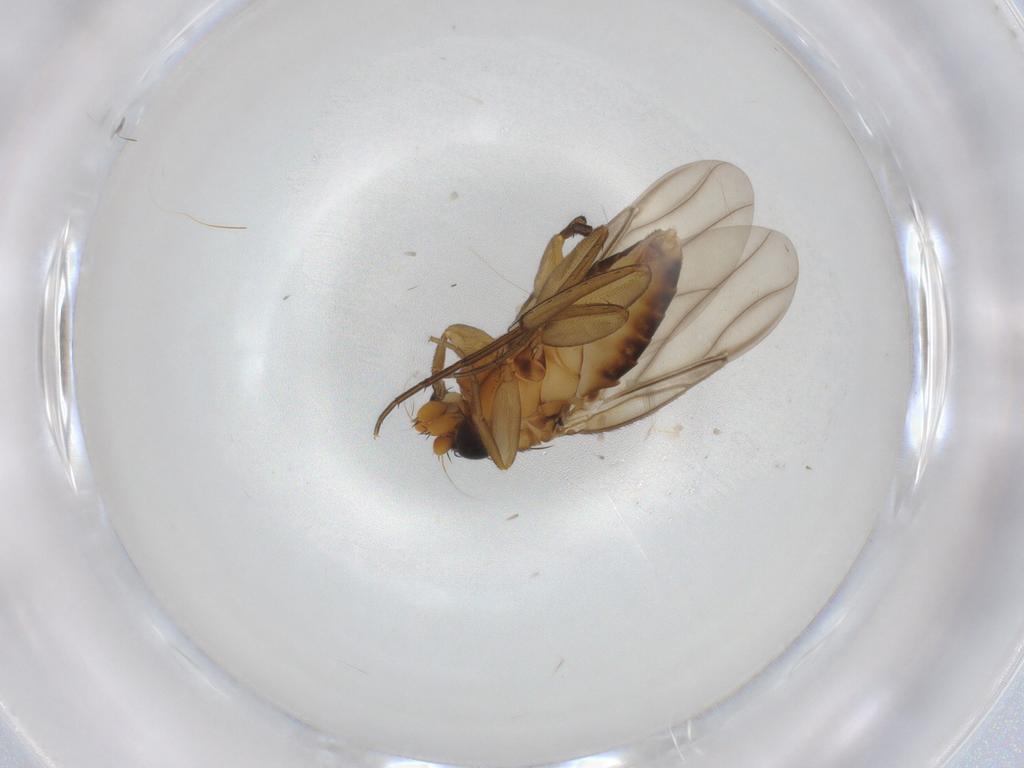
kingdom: Animalia
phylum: Arthropoda
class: Insecta
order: Diptera
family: Phoridae
